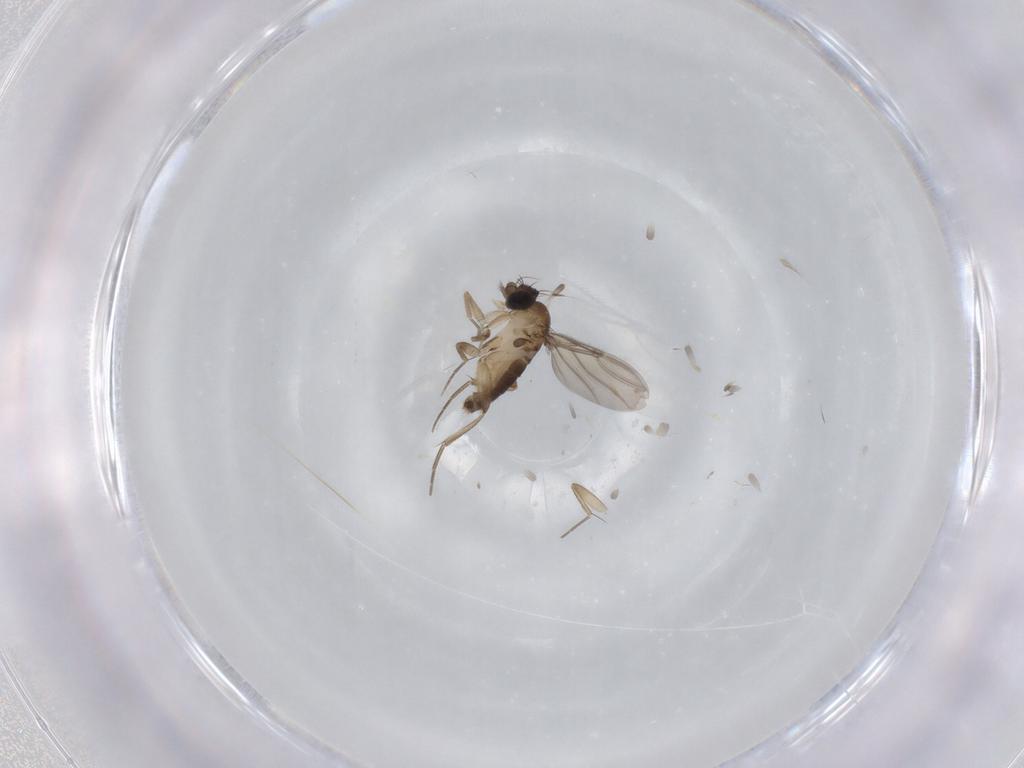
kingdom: Animalia
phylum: Arthropoda
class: Insecta
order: Diptera
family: Phoridae
